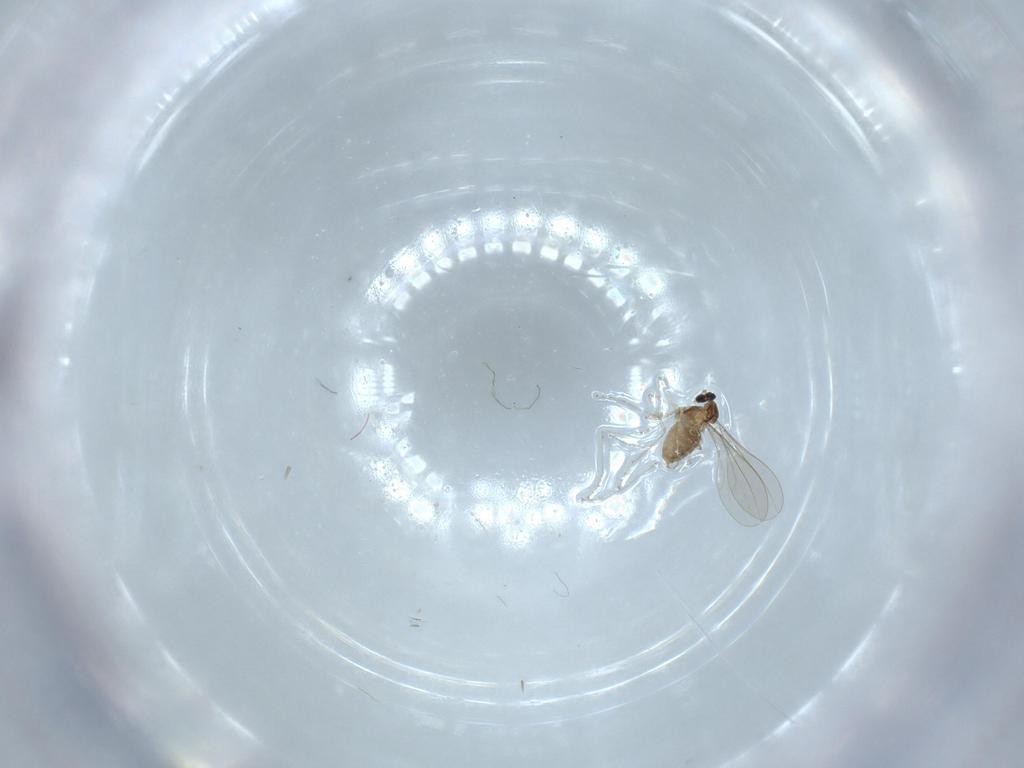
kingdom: Animalia
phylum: Arthropoda
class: Insecta
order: Diptera
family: Cecidomyiidae
